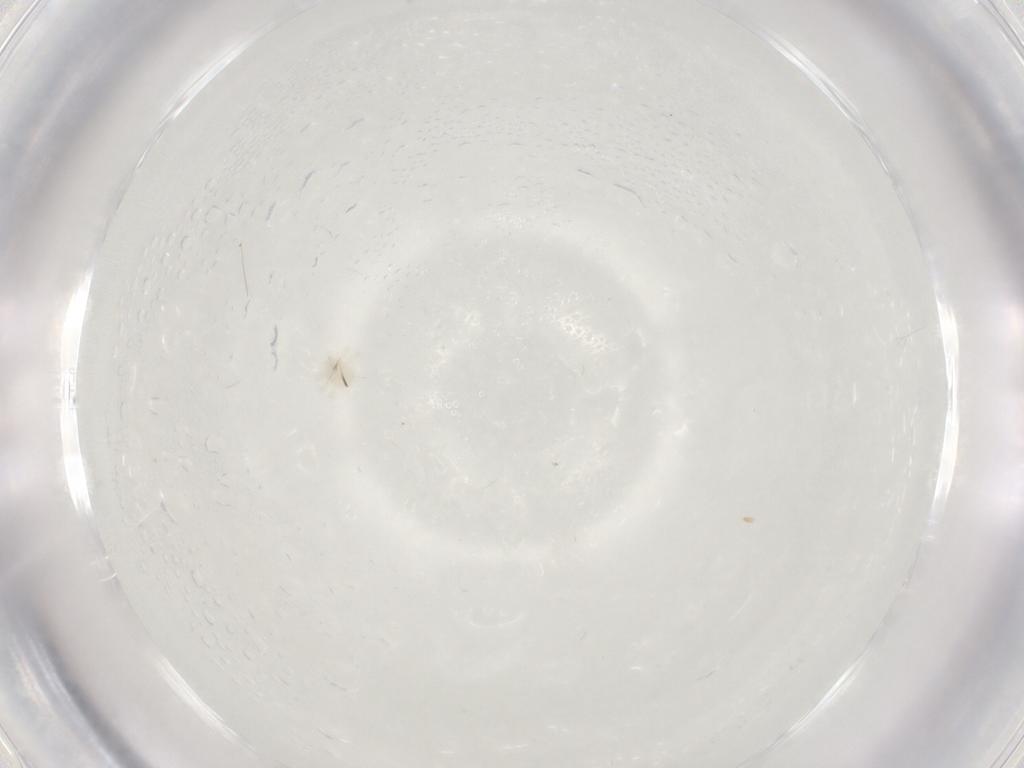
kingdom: Animalia
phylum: Arthropoda
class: Arachnida
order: Trombidiformes
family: Anystidae
